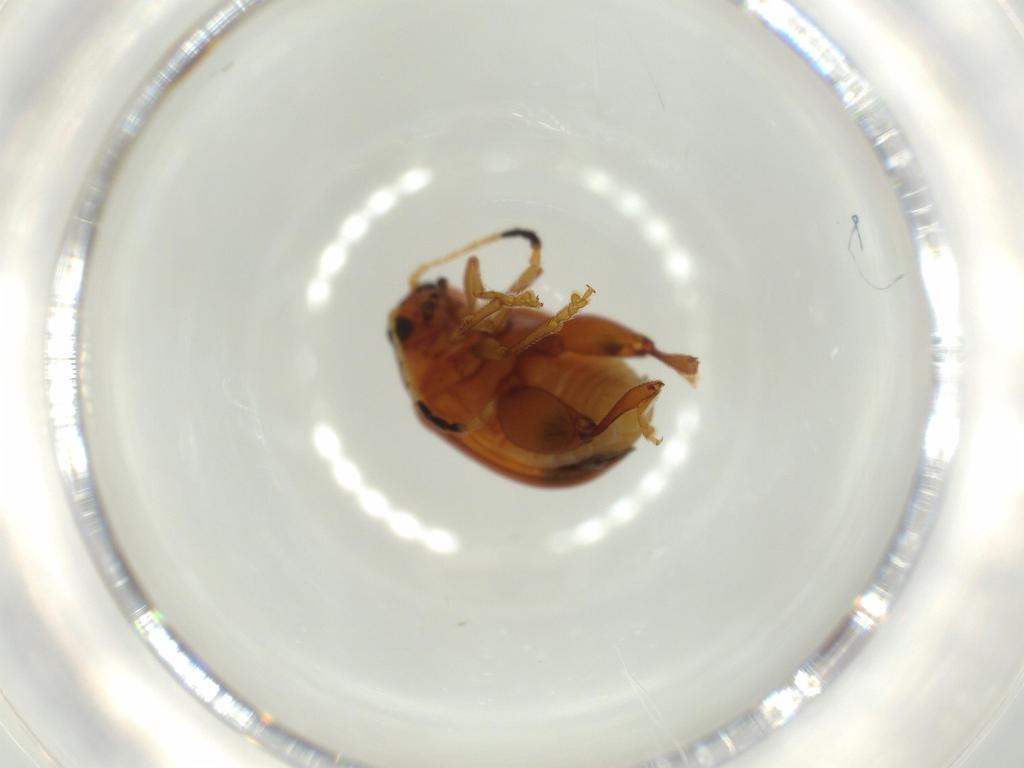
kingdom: Animalia
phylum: Arthropoda
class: Insecta
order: Coleoptera
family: Chrysomelidae
